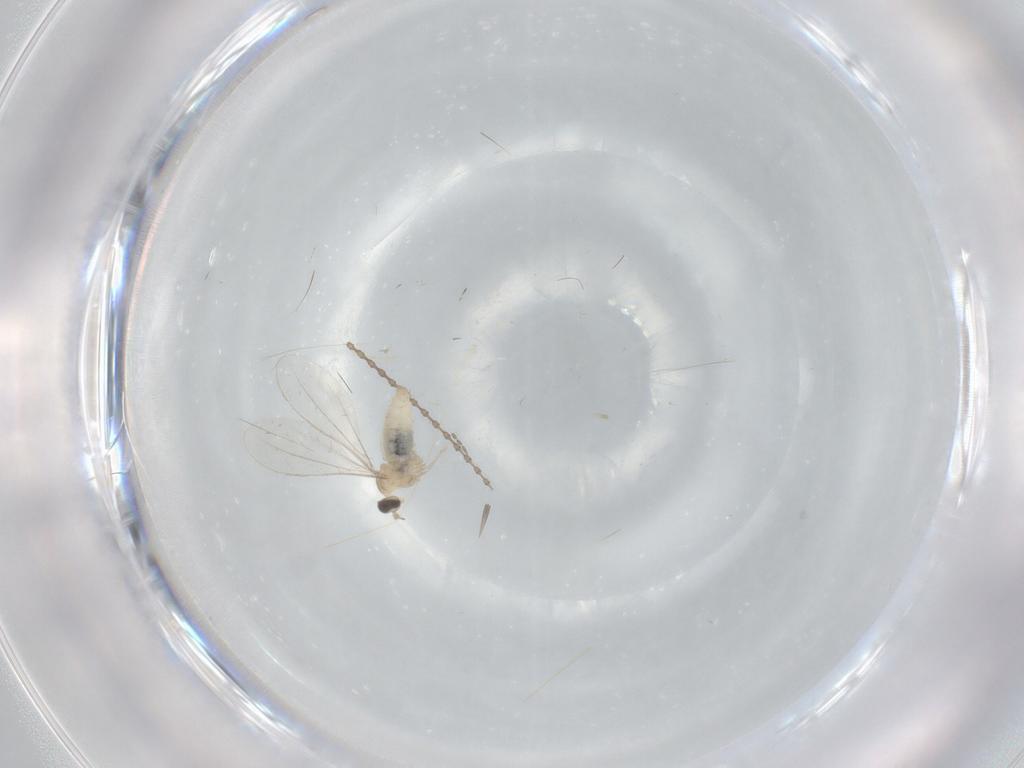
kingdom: Animalia
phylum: Arthropoda
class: Insecta
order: Diptera
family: Cecidomyiidae
